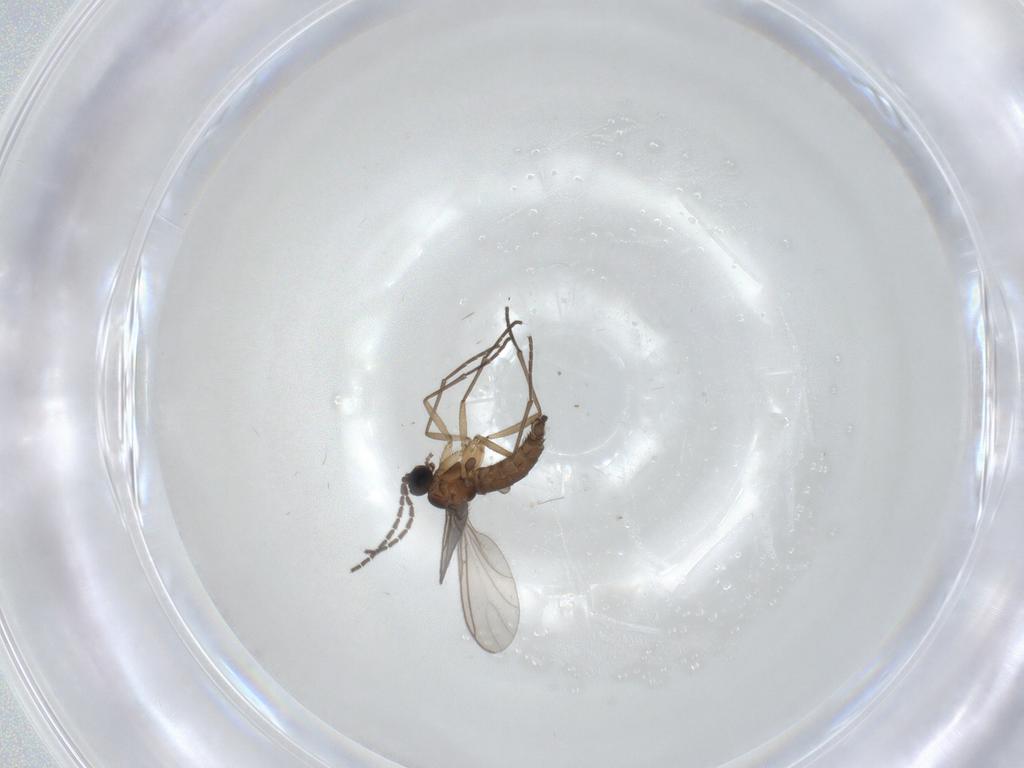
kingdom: Animalia
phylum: Arthropoda
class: Insecta
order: Diptera
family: Sciaridae
